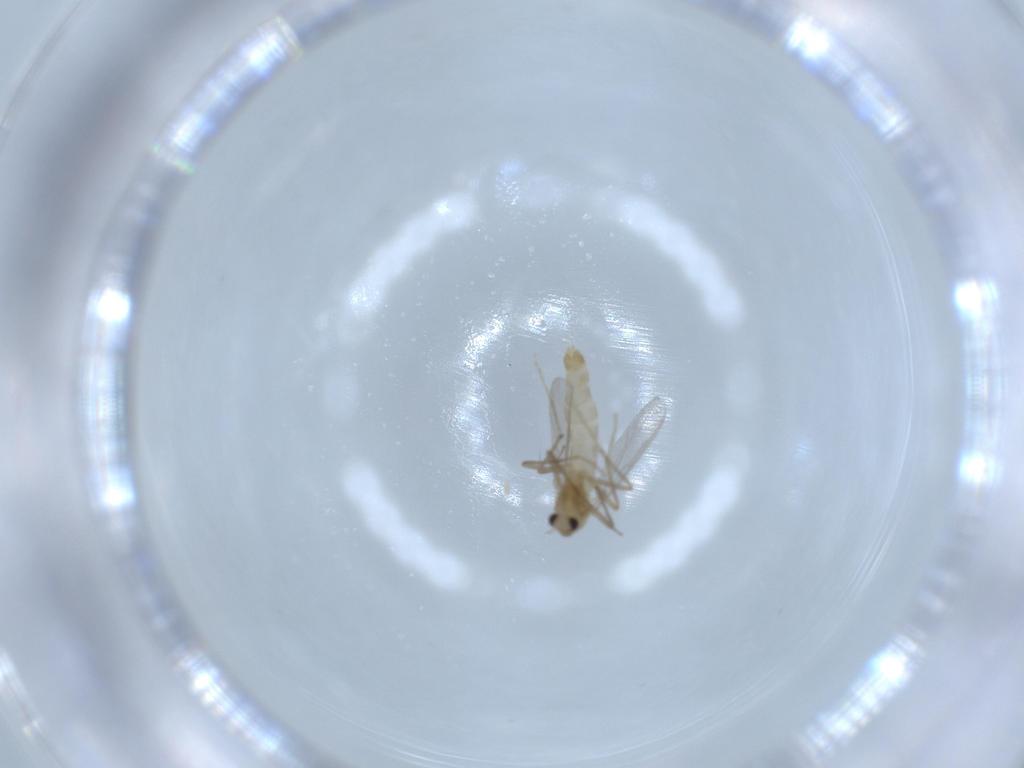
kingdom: Animalia
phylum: Arthropoda
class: Insecta
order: Diptera
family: Chironomidae
